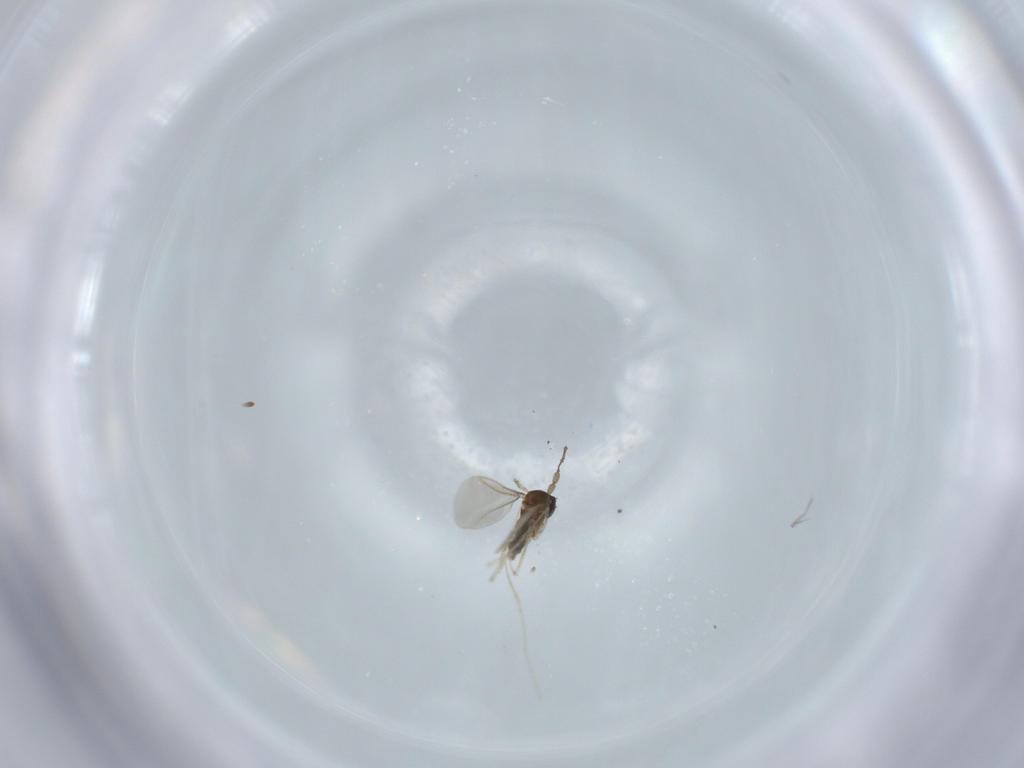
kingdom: Animalia
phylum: Arthropoda
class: Insecta
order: Diptera
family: Cecidomyiidae
